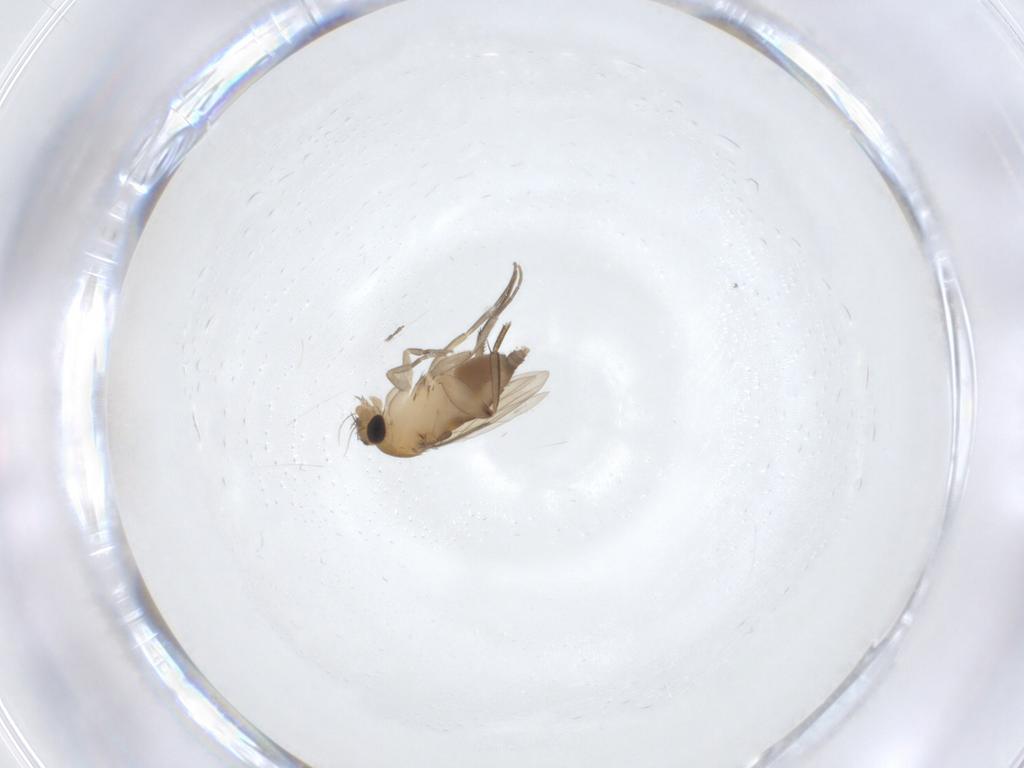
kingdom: Animalia
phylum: Arthropoda
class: Insecta
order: Diptera
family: Phoridae
